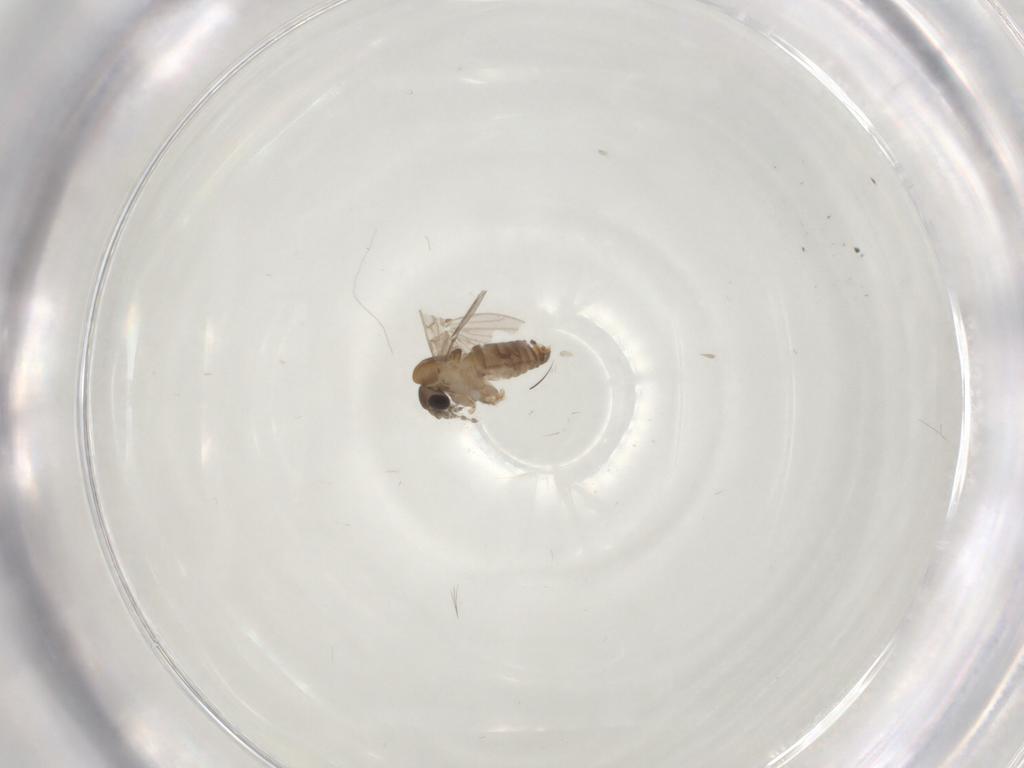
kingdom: Animalia
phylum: Arthropoda
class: Insecta
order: Diptera
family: Psychodidae
